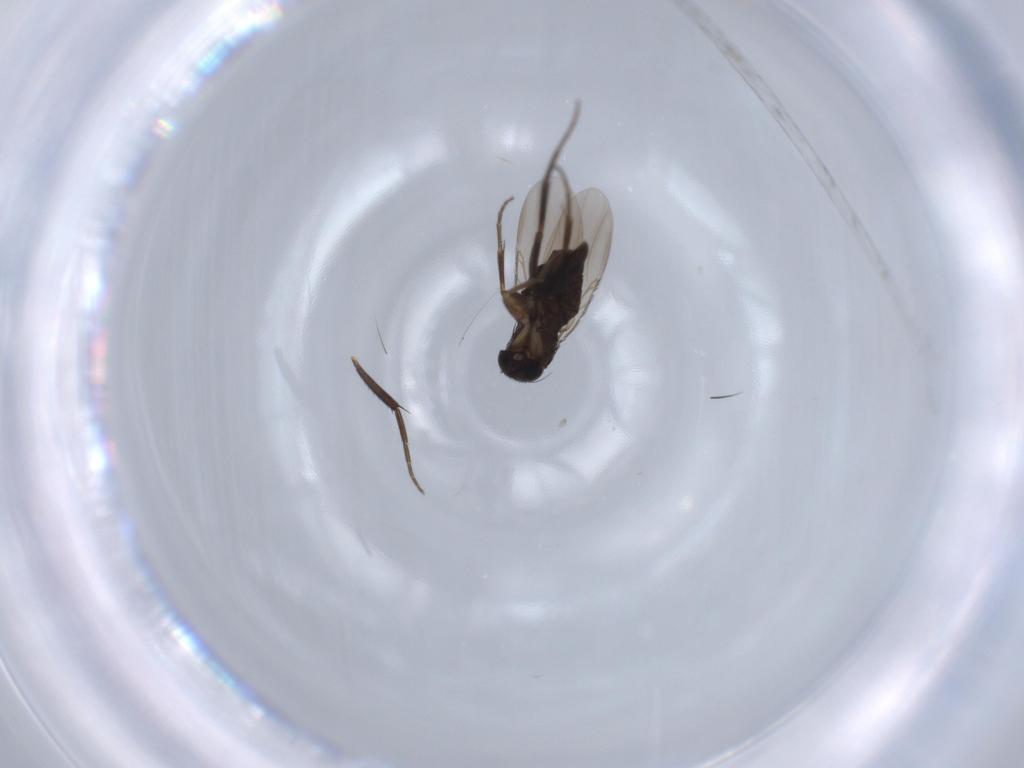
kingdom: Animalia
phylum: Arthropoda
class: Insecta
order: Diptera
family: Phoridae
